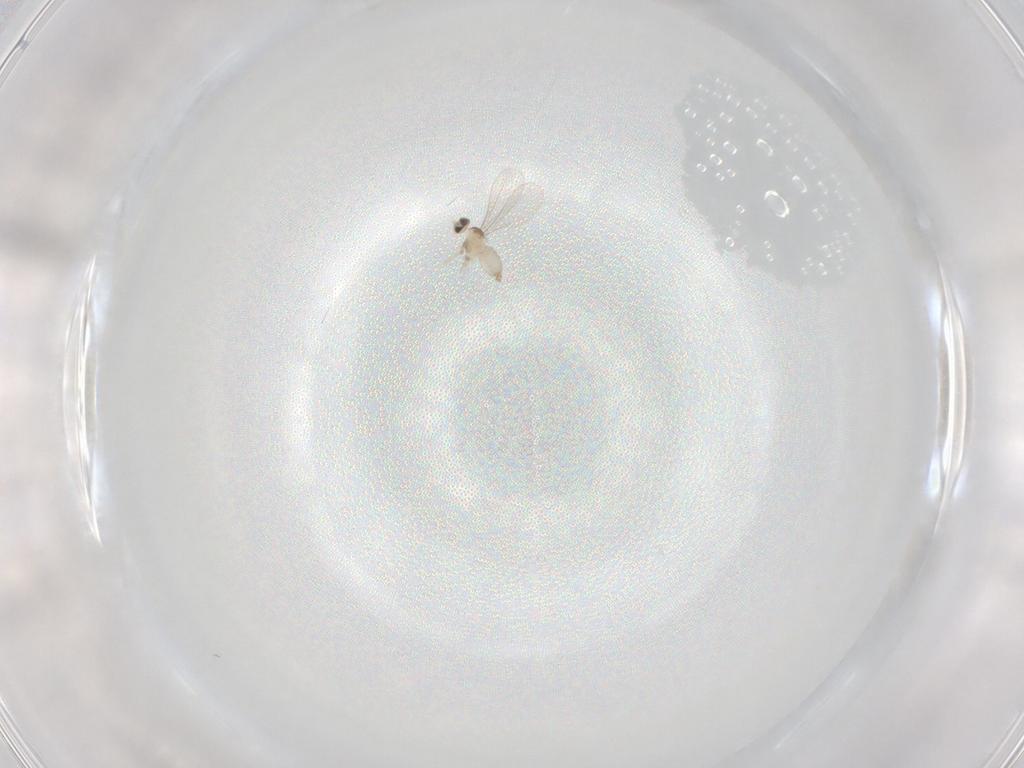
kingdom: Animalia
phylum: Arthropoda
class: Insecta
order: Diptera
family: Cecidomyiidae
